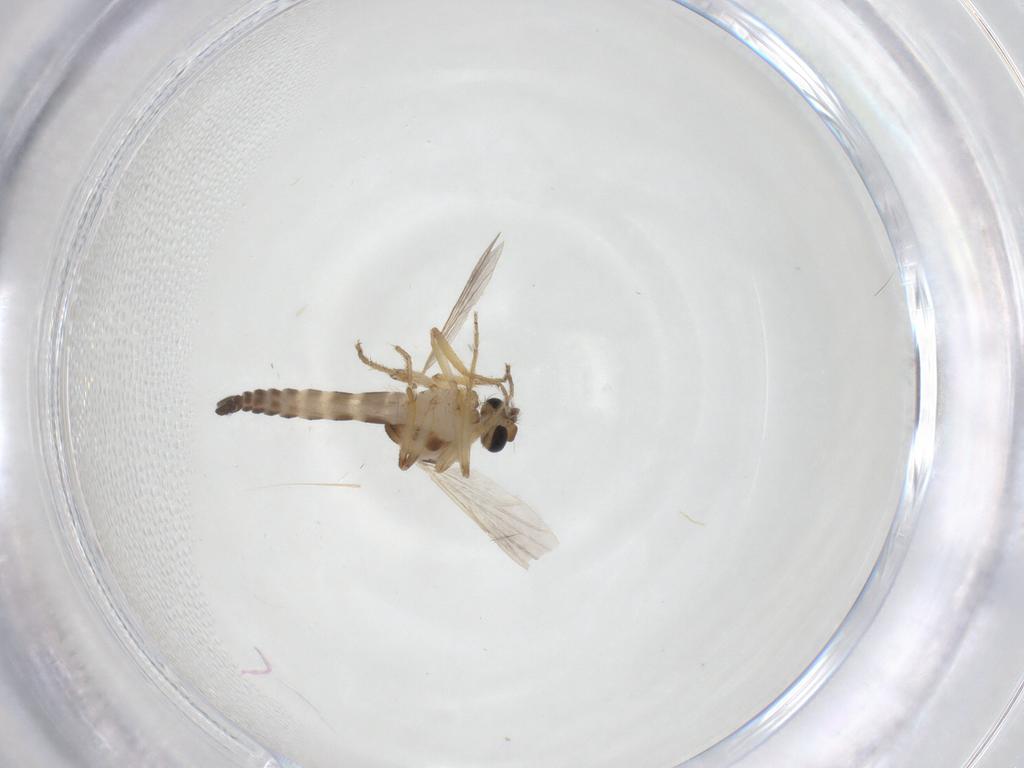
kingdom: Animalia
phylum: Arthropoda
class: Insecta
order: Diptera
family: Ceratopogonidae
